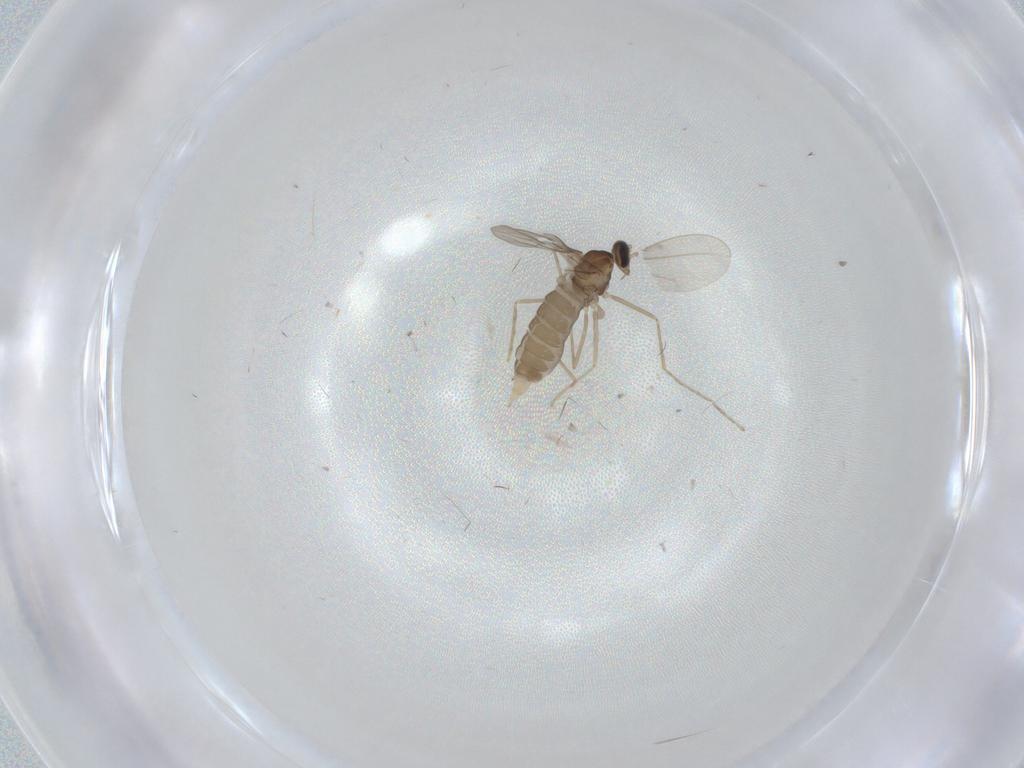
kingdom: Animalia
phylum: Arthropoda
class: Insecta
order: Diptera
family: Cecidomyiidae
